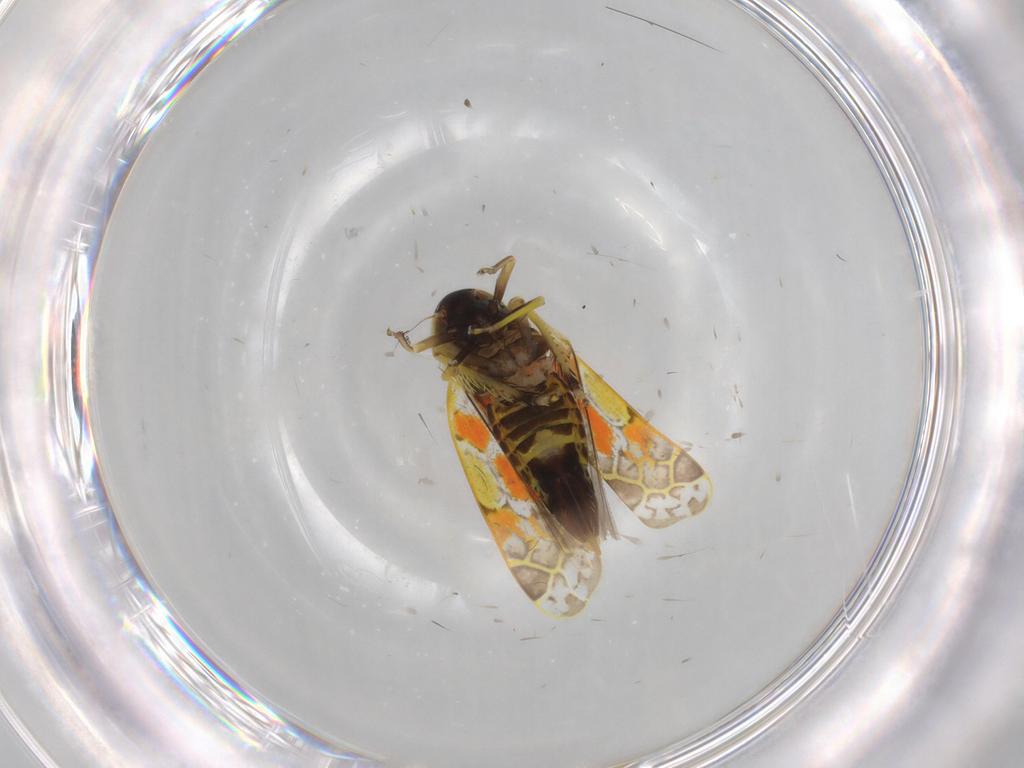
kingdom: Animalia
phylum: Arthropoda
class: Insecta
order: Hemiptera
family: Cicadellidae
